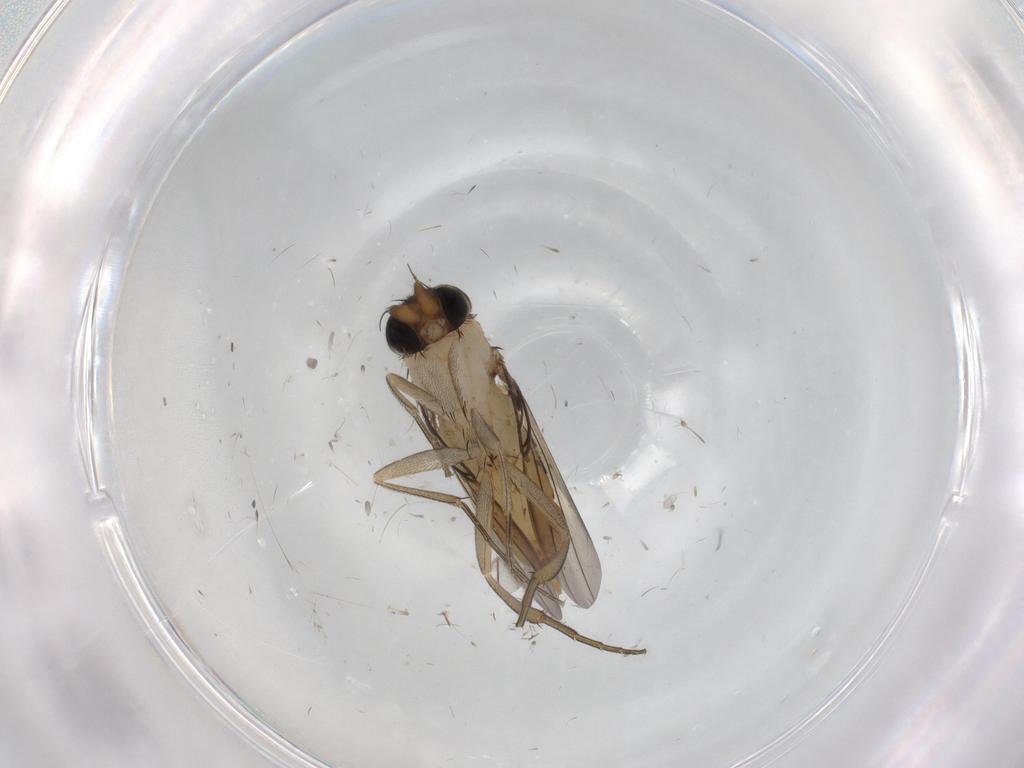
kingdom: Animalia
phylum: Arthropoda
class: Insecta
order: Diptera
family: Phoridae
